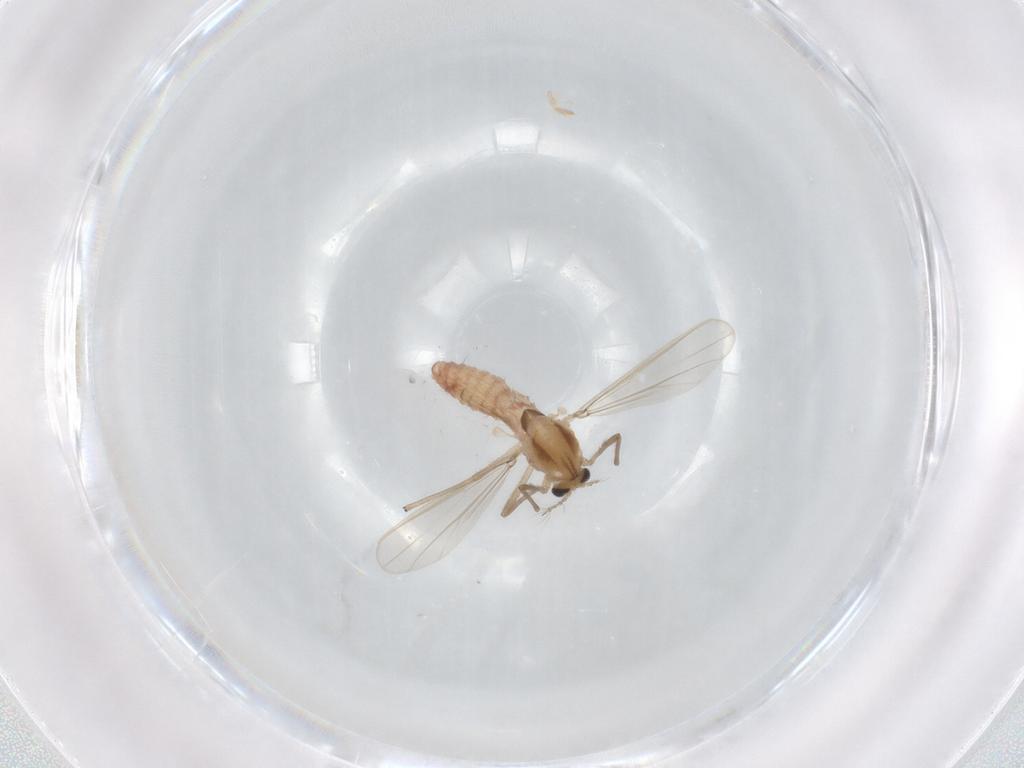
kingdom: Animalia
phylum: Arthropoda
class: Insecta
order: Diptera
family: Chironomidae
